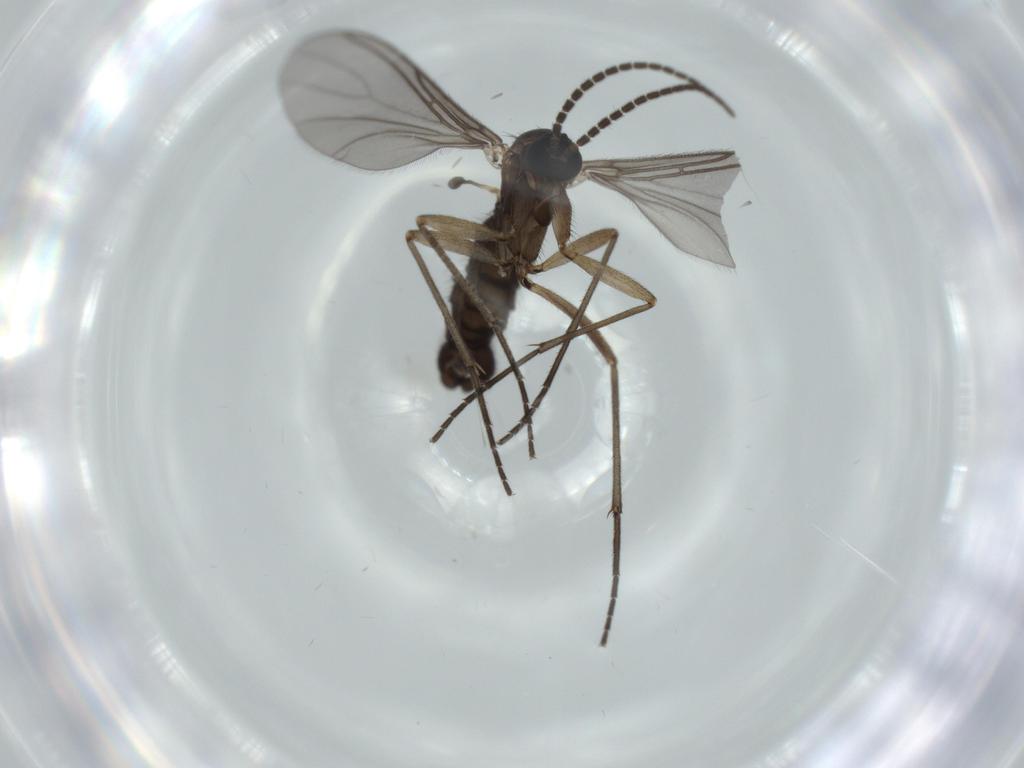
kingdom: Animalia
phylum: Arthropoda
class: Insecta
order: Diptera
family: Sciaridae
